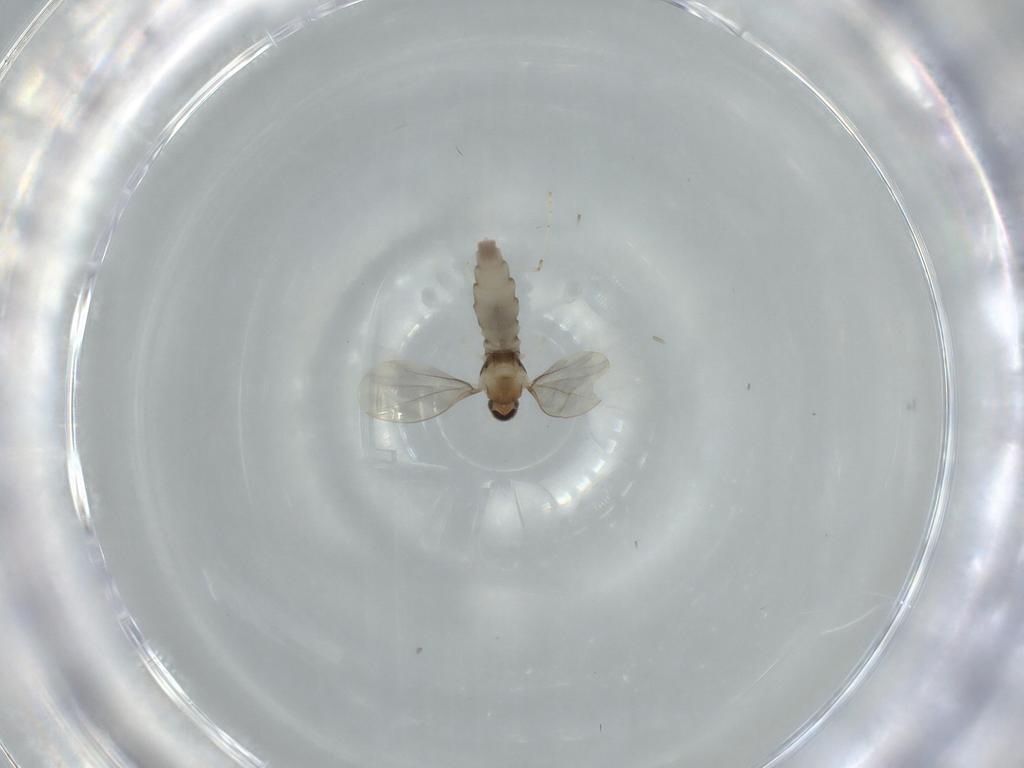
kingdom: Animalia
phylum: Arthropoda
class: Insecta
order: Diptera
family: Cecidomyiidae
